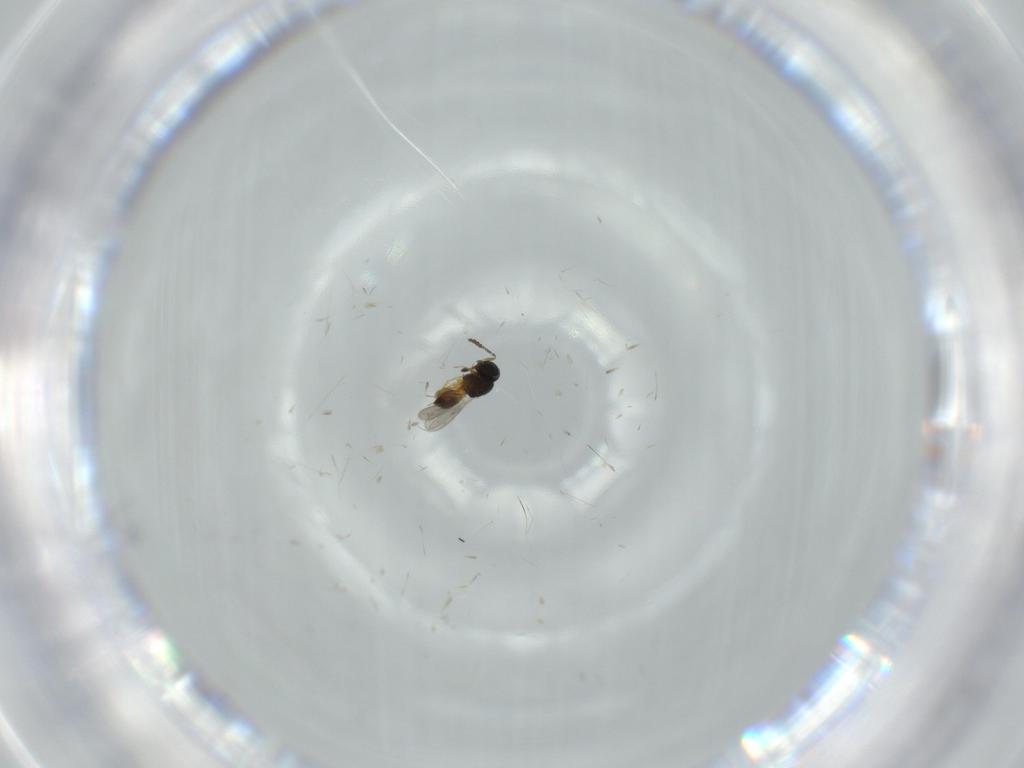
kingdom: Animalia
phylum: Arthropoda
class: Insecta
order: Hymenoptera
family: Scelionidae
